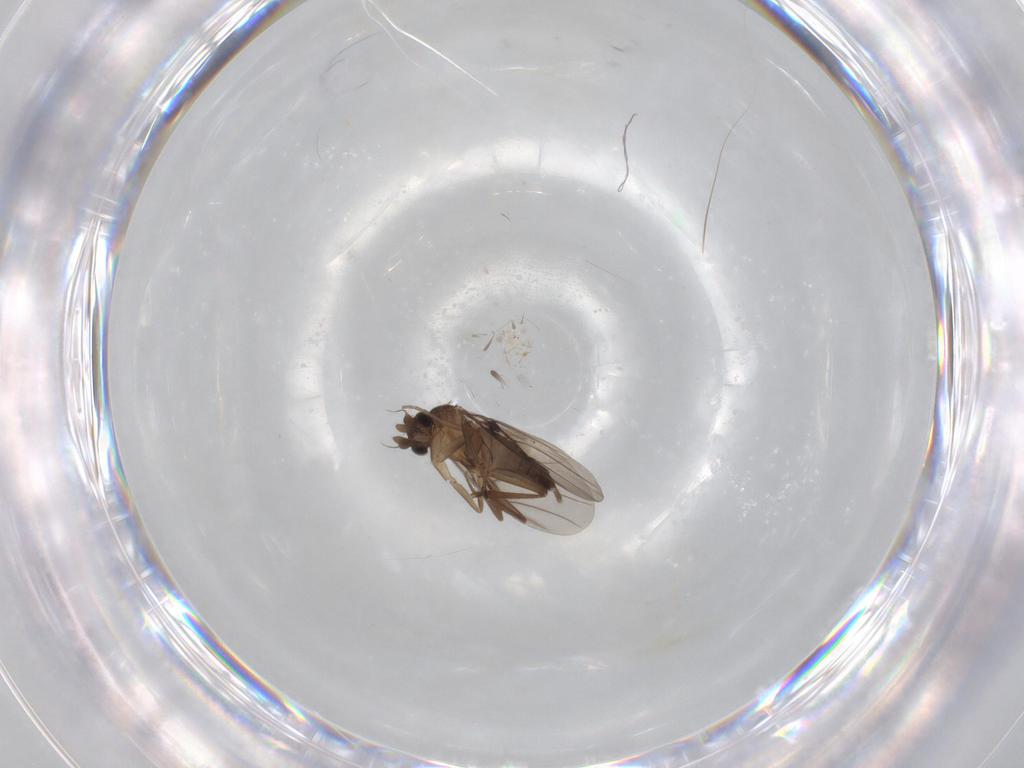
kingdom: Animalia
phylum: Arthropoda
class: Insecta
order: Diptera
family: Phoridae
